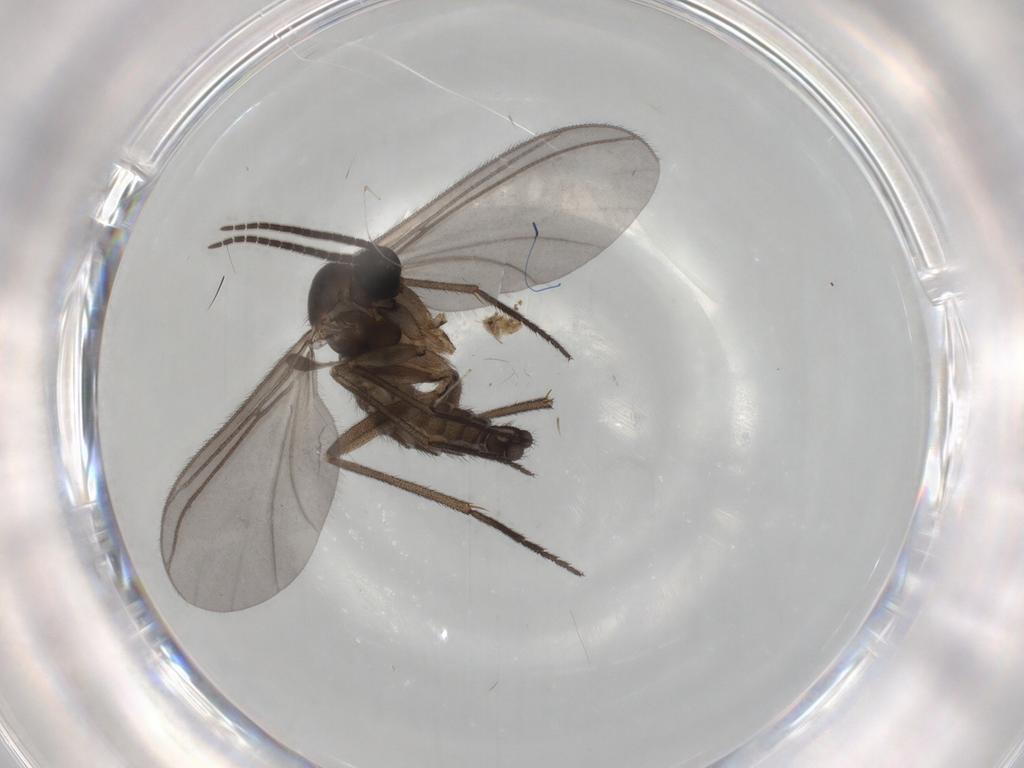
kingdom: Animalia
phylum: Arthropoda
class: Insecta
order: Diptera
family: Sciaridae
